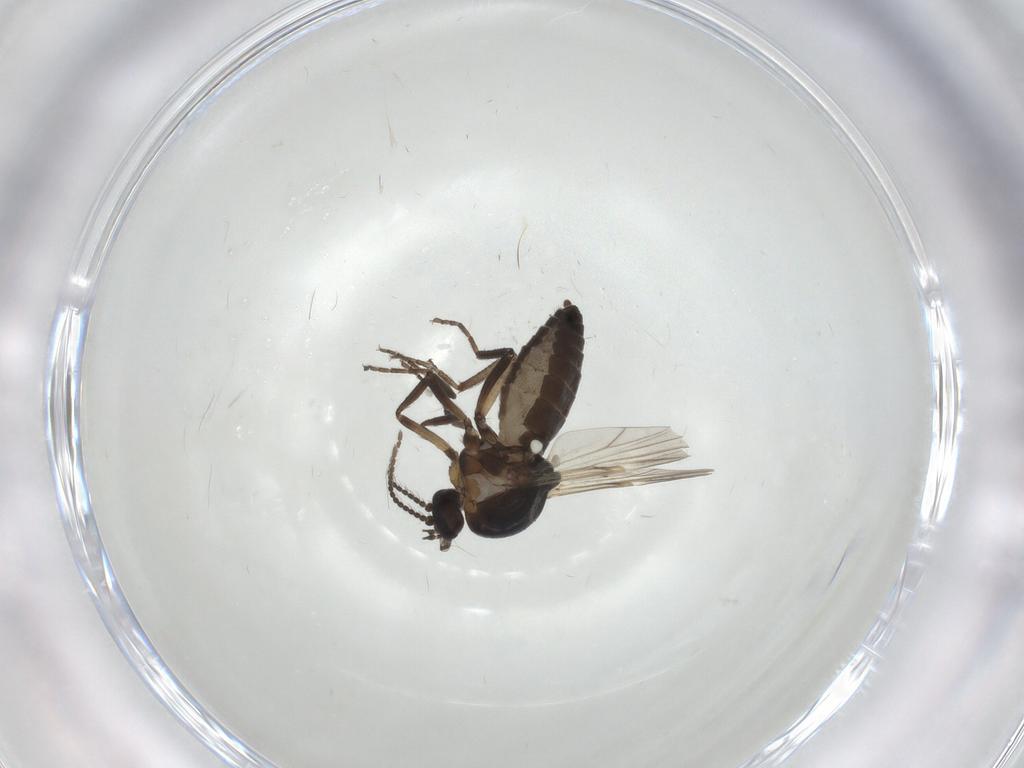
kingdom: Animalia
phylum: Arthropoda
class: Insecta
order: Diptera
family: Ceratopogonidae
